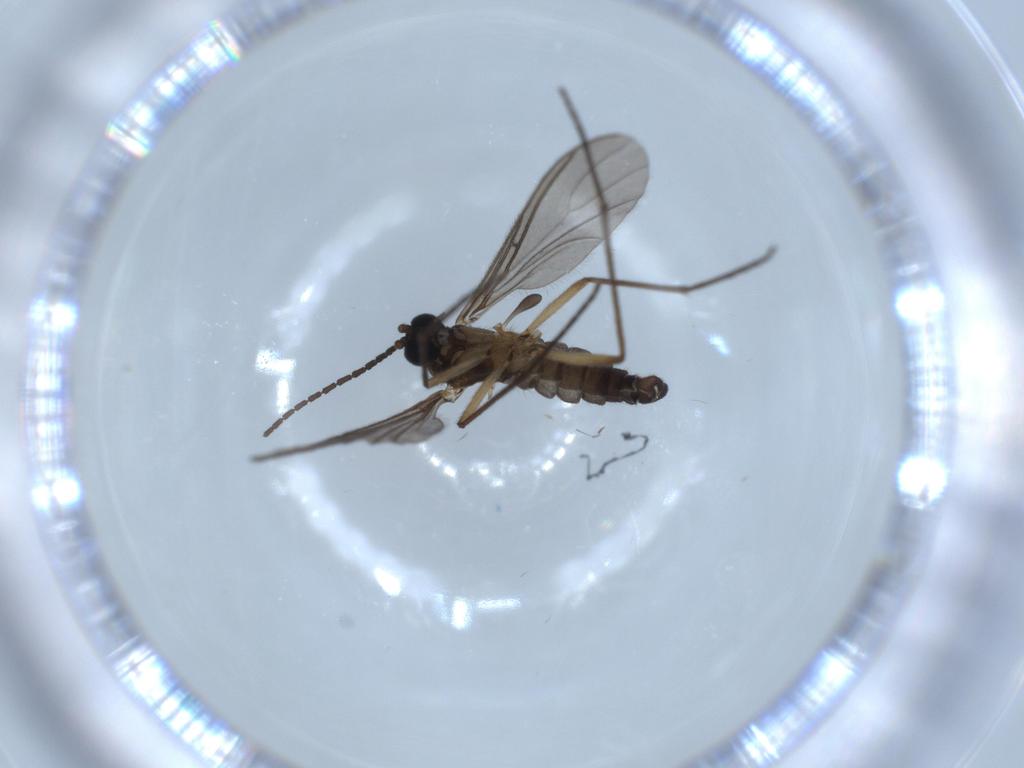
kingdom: Animalia
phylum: Arthropoda
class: Insecta
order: Diptera
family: Sciaridae
